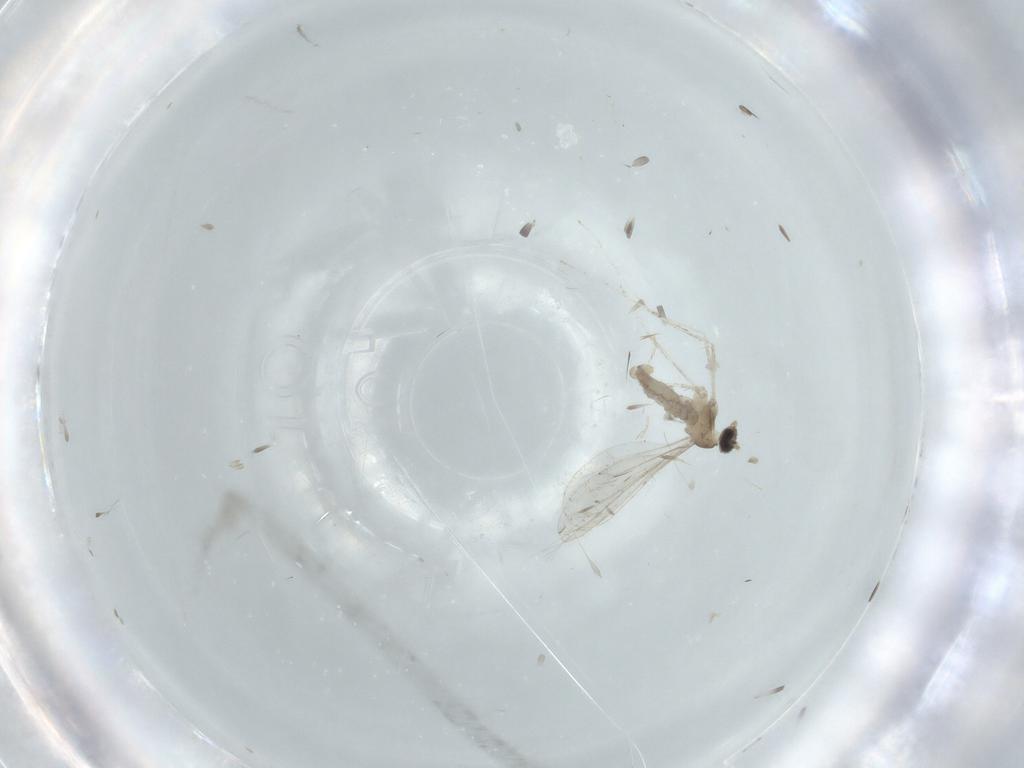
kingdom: Animalia
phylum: Arthropoda
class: Insecta
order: Diptera
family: Cecidomyiidae
